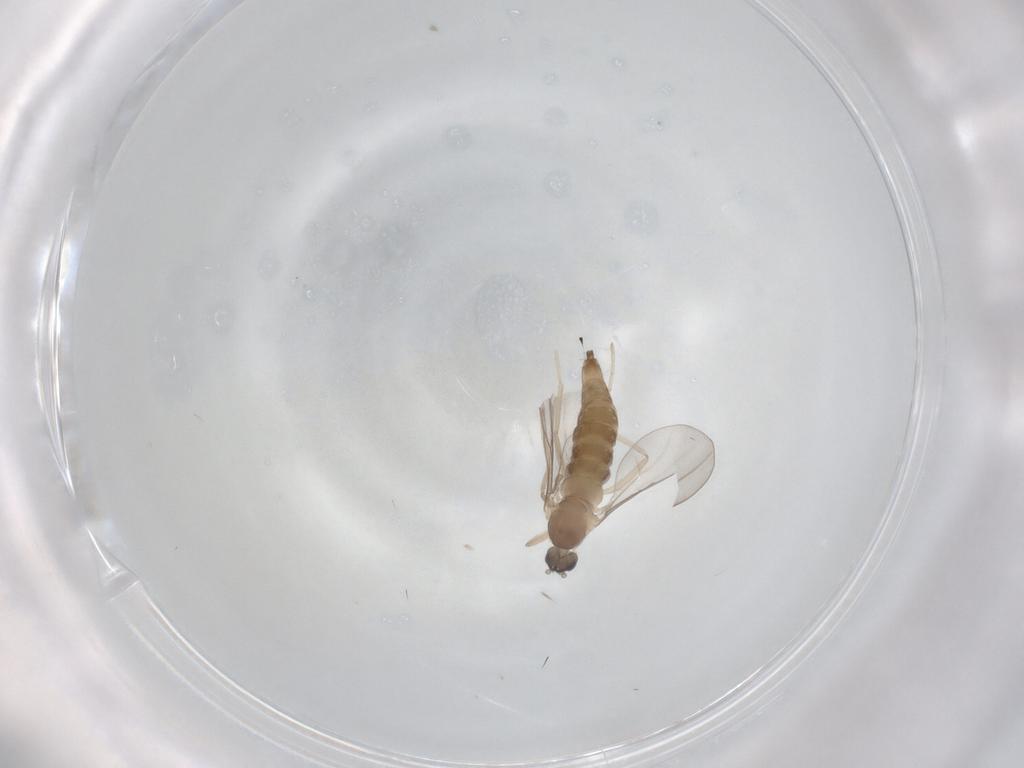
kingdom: Animalia
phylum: Arthropoda
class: Insecta
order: Diptera
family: Cecidomyiidae
